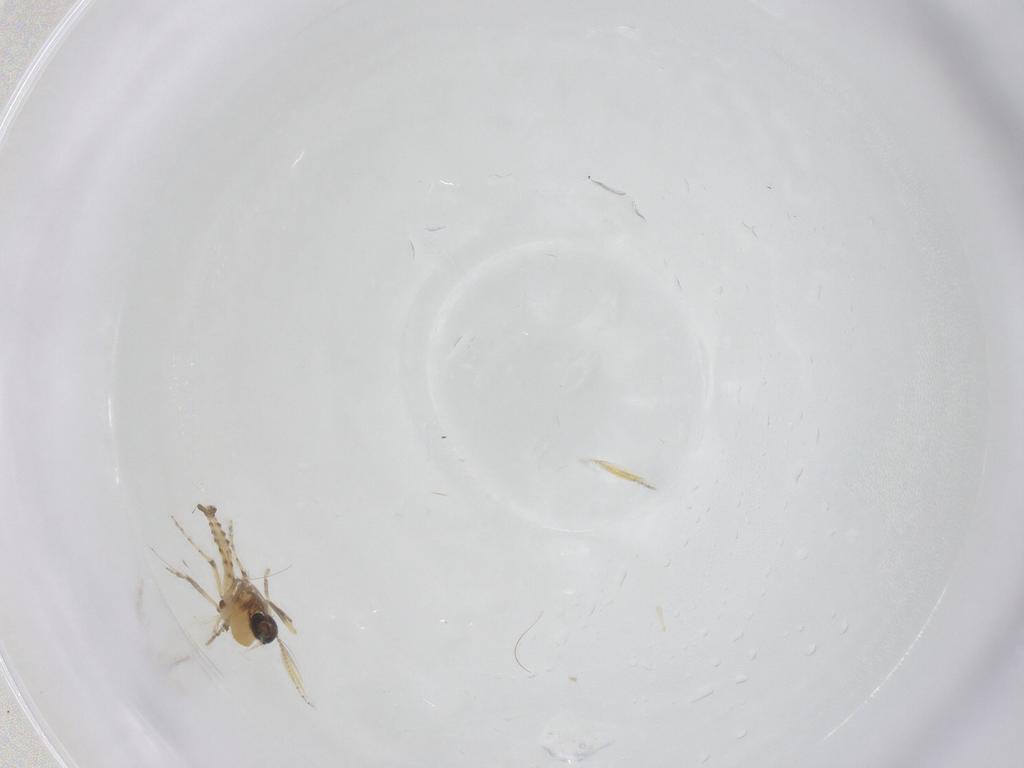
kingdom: Animalia
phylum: Arthropoda
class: Insecta
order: Diptera
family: Ceratopogonidae
